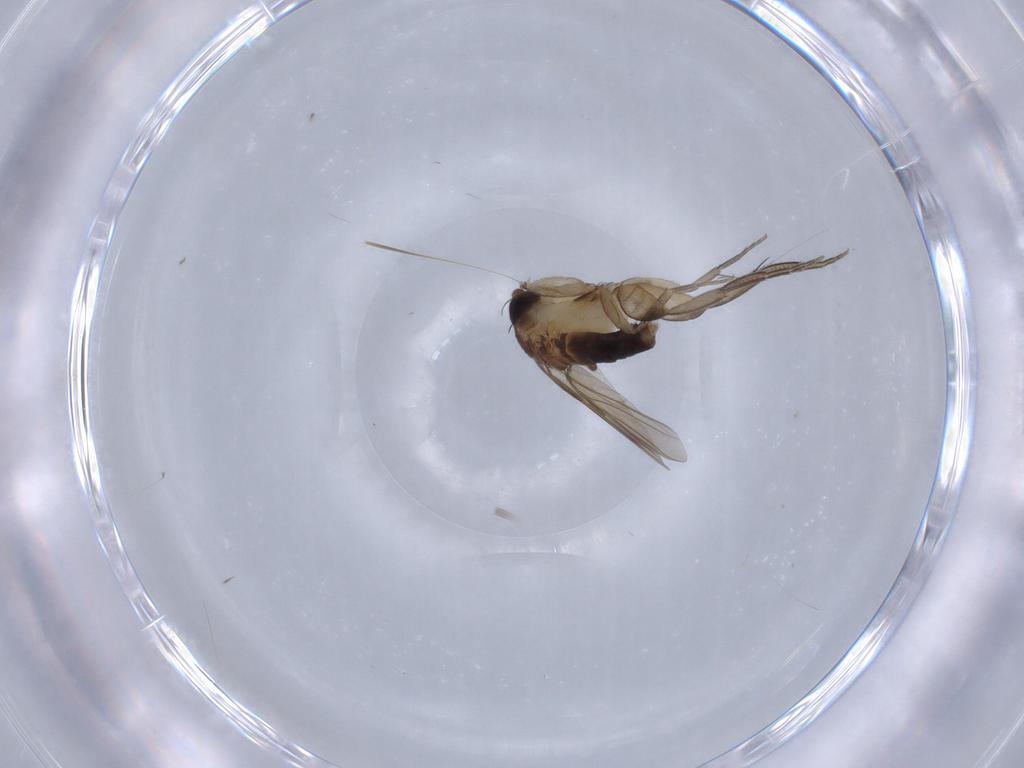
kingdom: Animalia
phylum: Arthropoda
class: Insecta
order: Diptera
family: Phoridae
